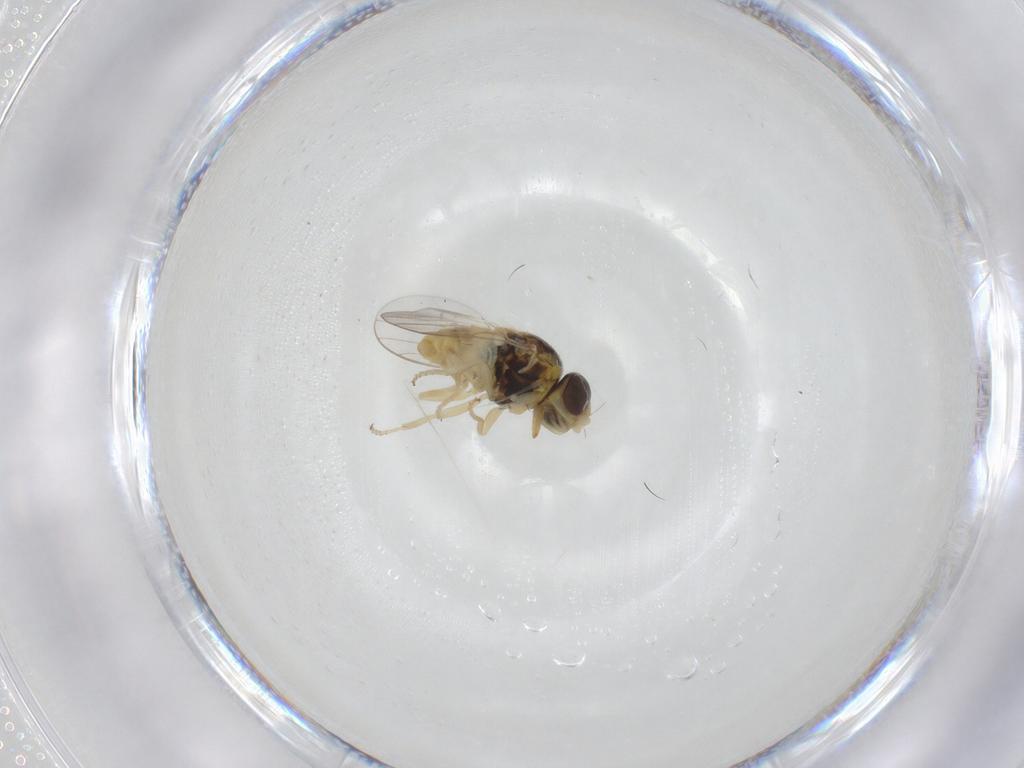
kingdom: Animalia
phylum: Arthropoda
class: Insecta
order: Diptera
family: Chloropidae
